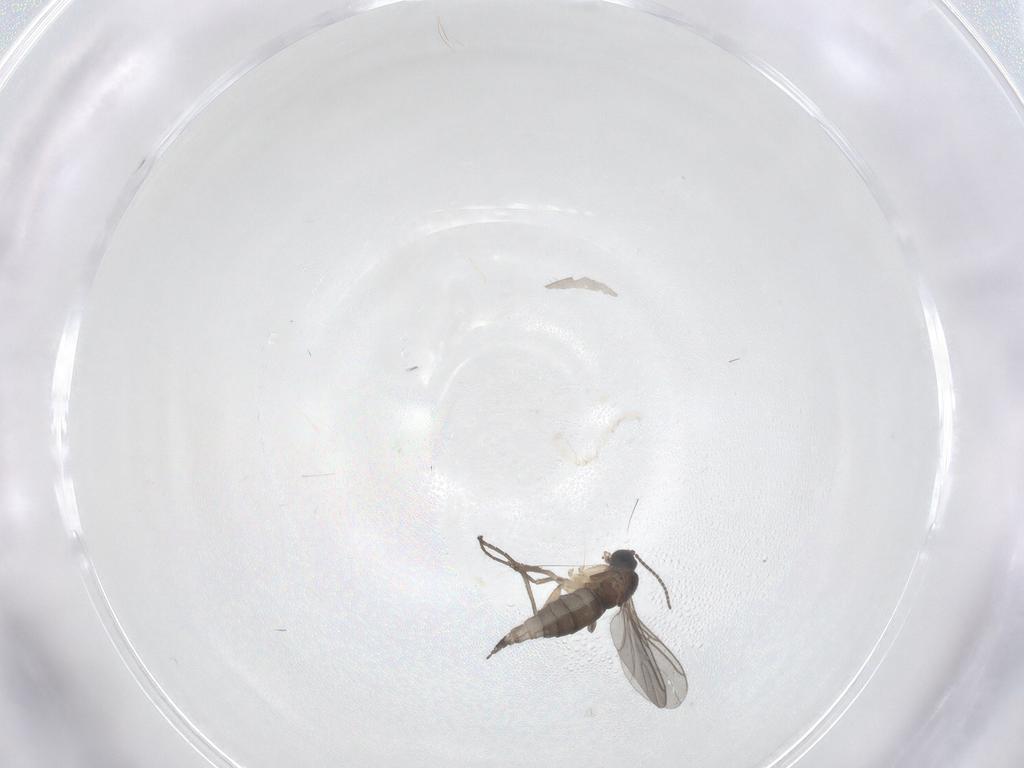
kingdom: Animalia
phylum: Arthropoda
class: Insecta
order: Diptera
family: Sciaridae
